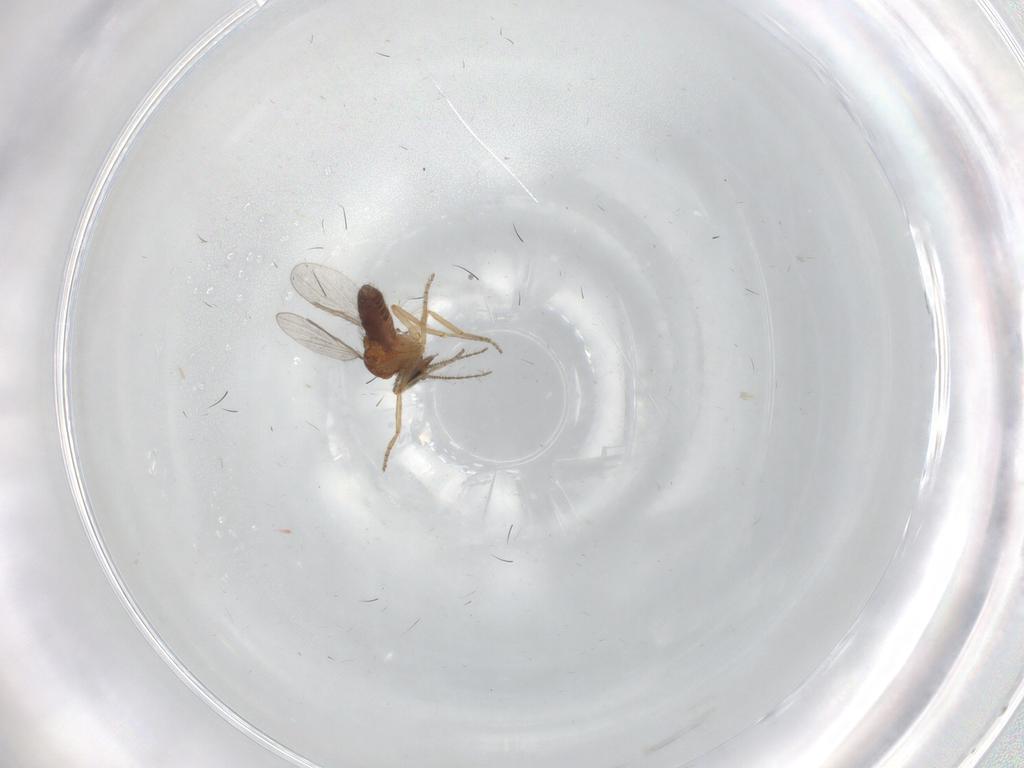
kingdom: Animalia
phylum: Arthropoda
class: Insecta
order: Diptera
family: Ceratopogonidae
